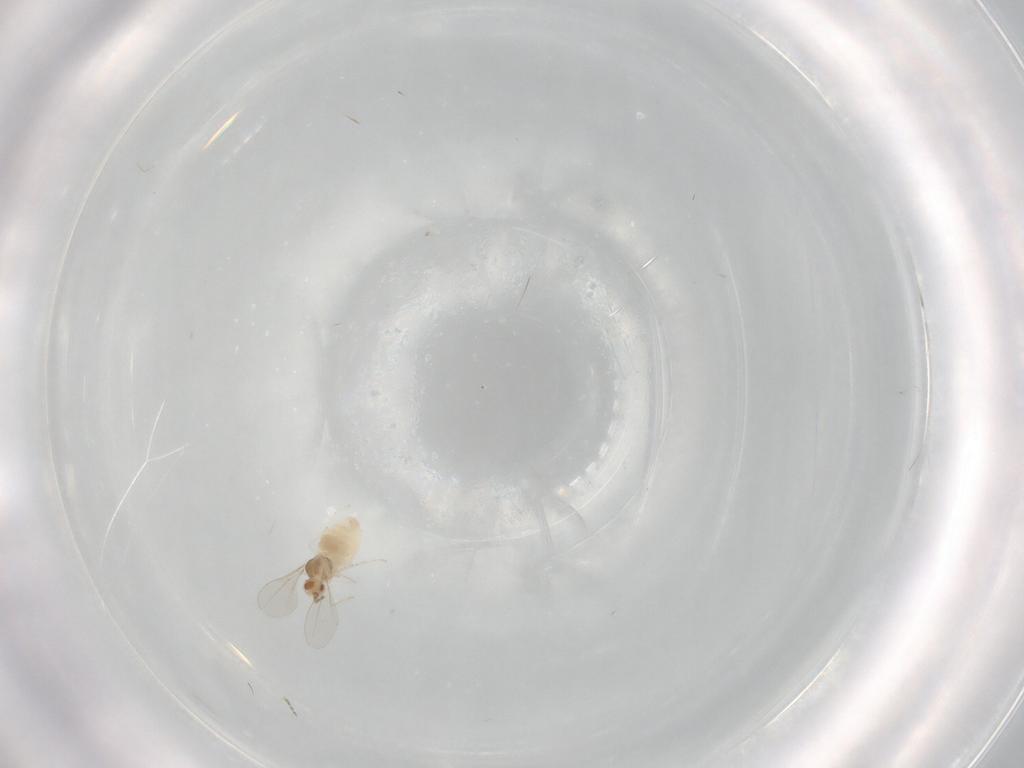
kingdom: Animalia
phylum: Arthropoda
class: Insecta
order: Diptera
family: Cecidomyiidae
